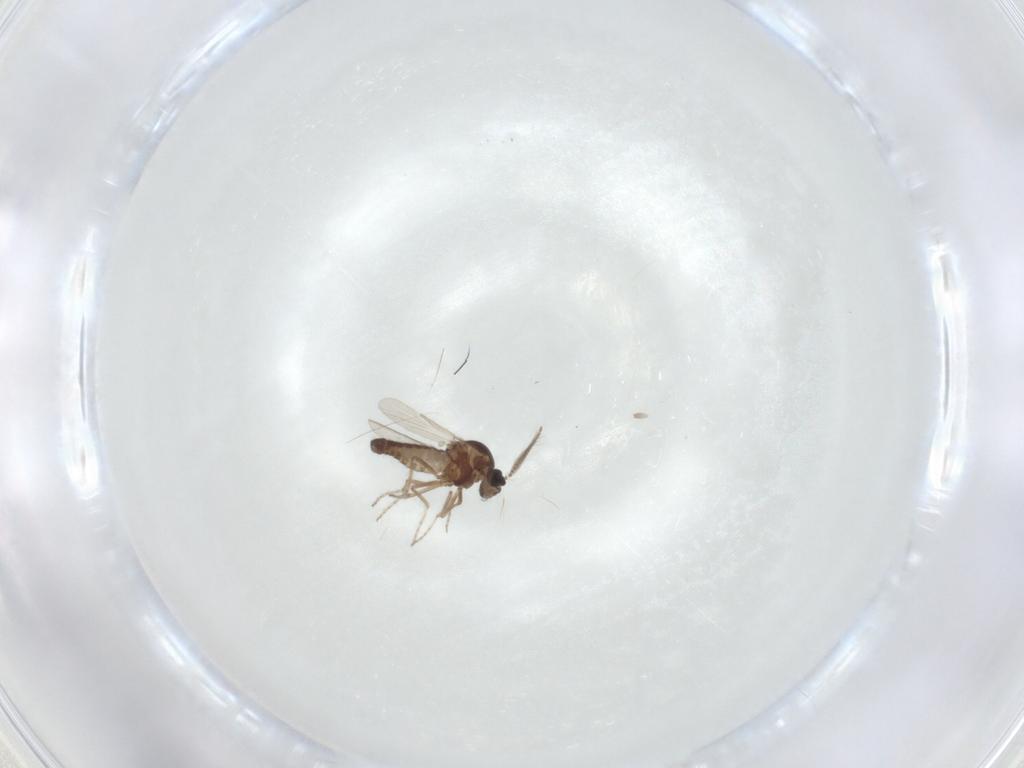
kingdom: Animalia
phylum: Arthropoda
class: Insecta
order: Diptera
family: Ceratopogonidae
